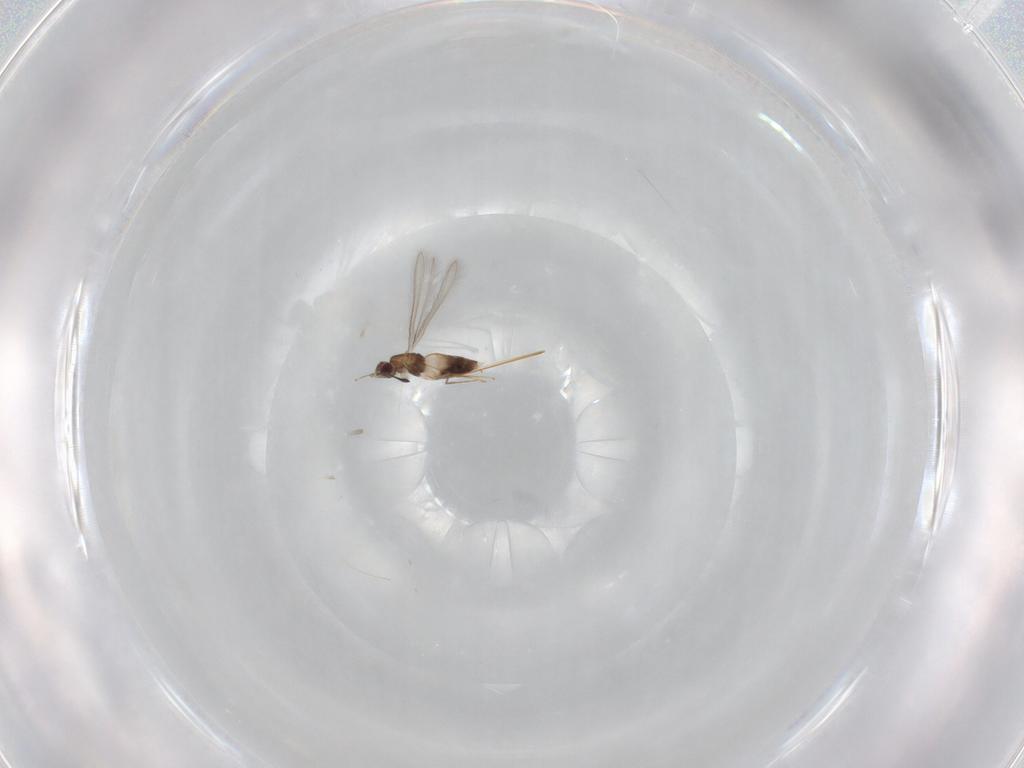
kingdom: Animalia
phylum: Arthropoda
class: Insecta
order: Hymenoptera
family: Mymaridae
